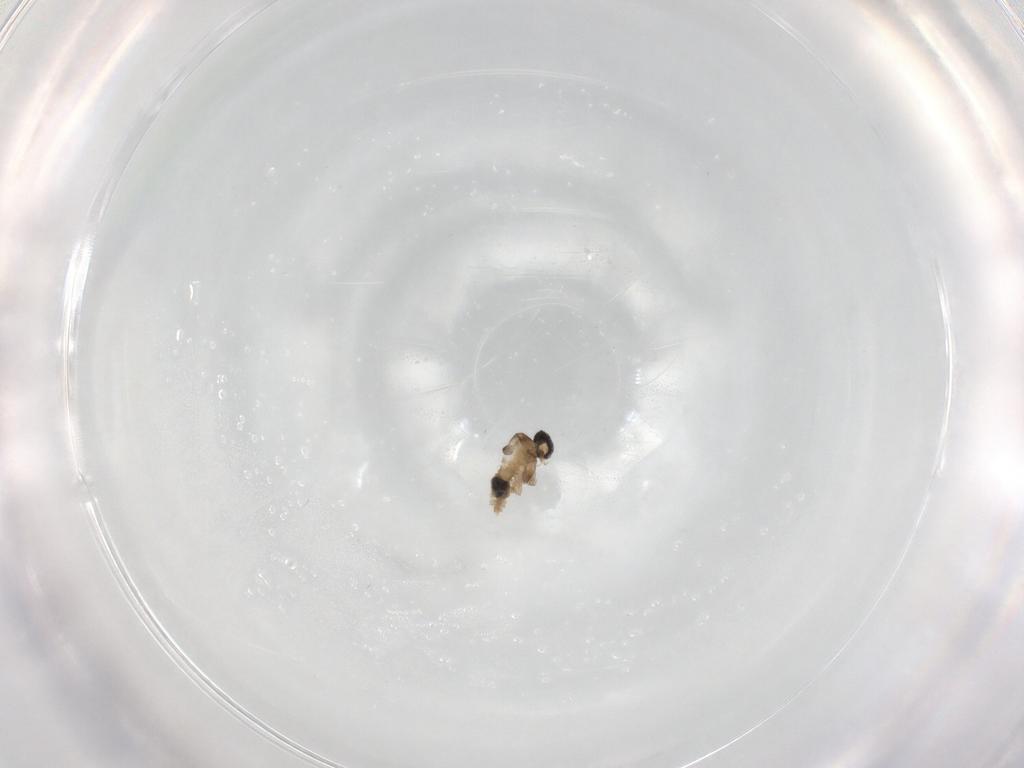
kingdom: Animalia
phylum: Arthropoda
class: Insecta
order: Diptera
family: Cecidomyiidae
